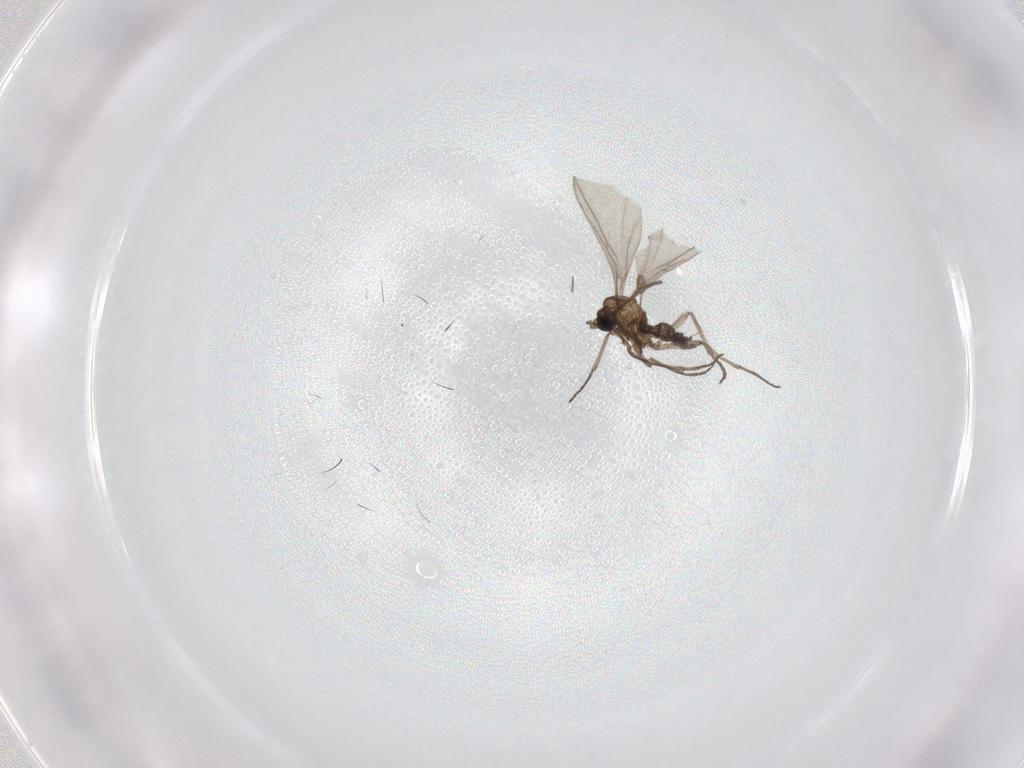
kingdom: Animalia
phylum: Arthropoda
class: Insecta
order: Diptera
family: Sciaridae
